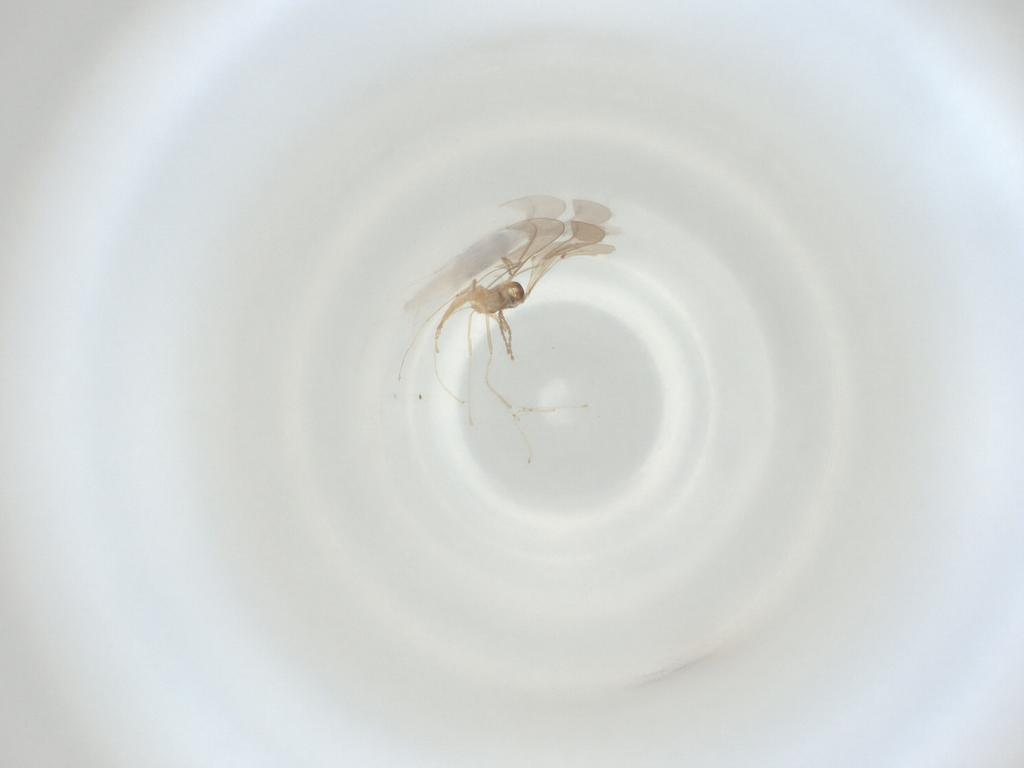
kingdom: Animalia
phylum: Arthropoda
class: Insecta
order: Diptera
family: Cecidomyiidae
